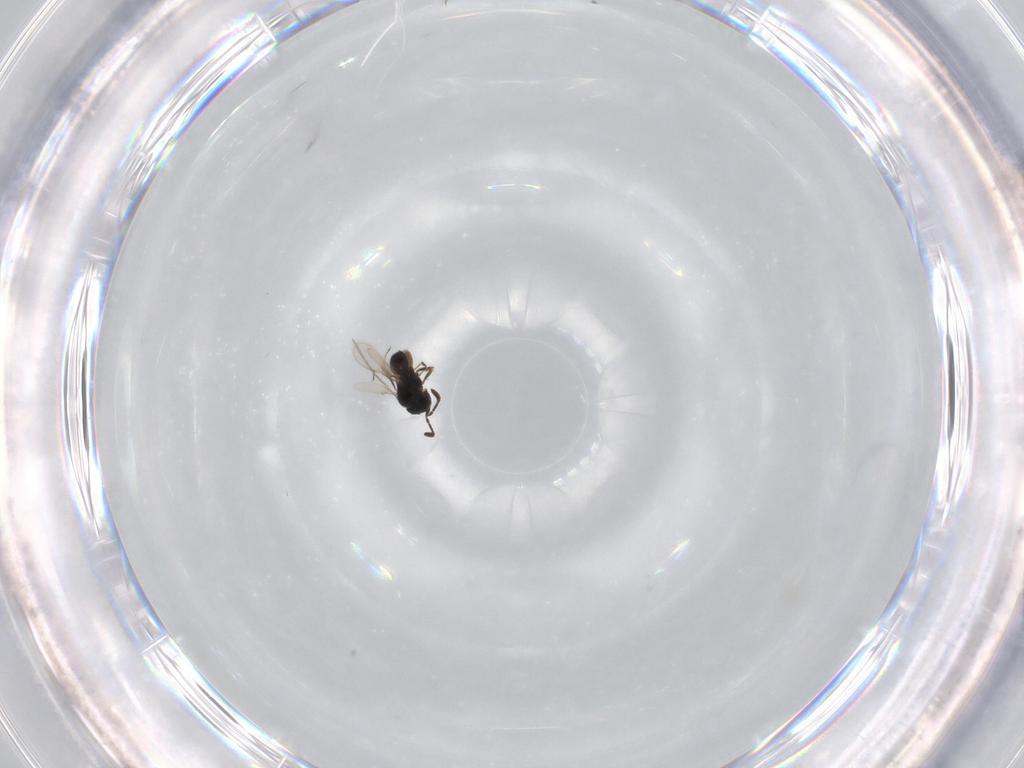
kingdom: Animalia
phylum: Arthropoda
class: Insecta
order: Hymenoptera
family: Scelionidae
